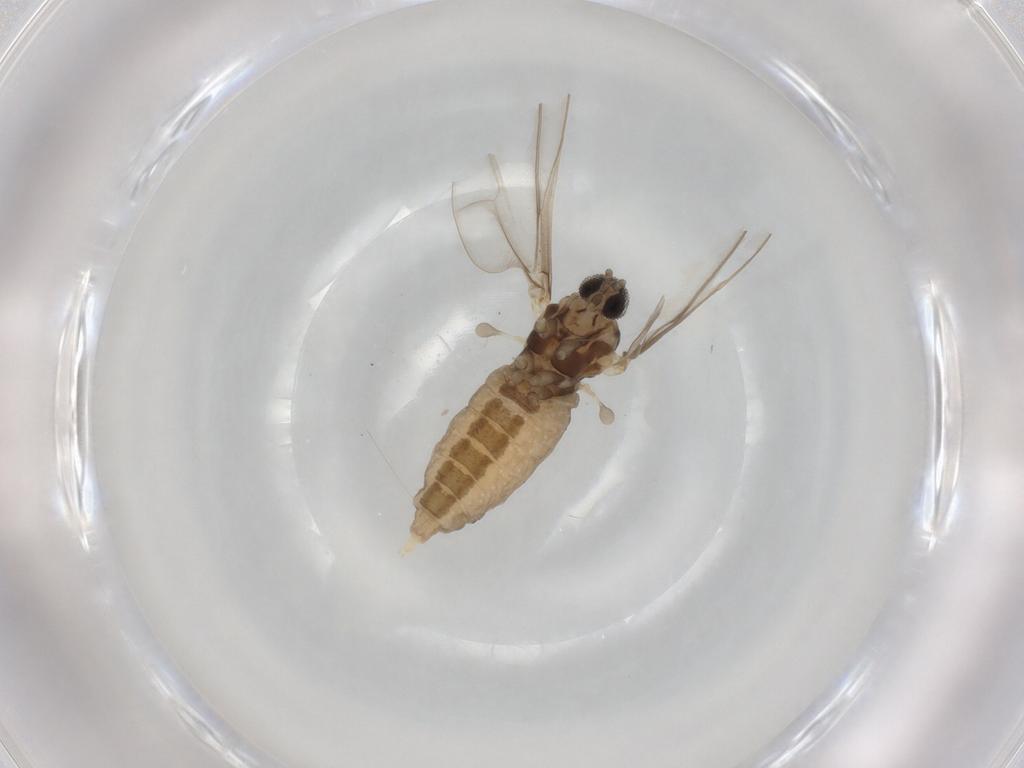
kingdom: Animalia
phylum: Arthropoda
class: Insecta
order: Diptera
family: Cecidomyiidae
